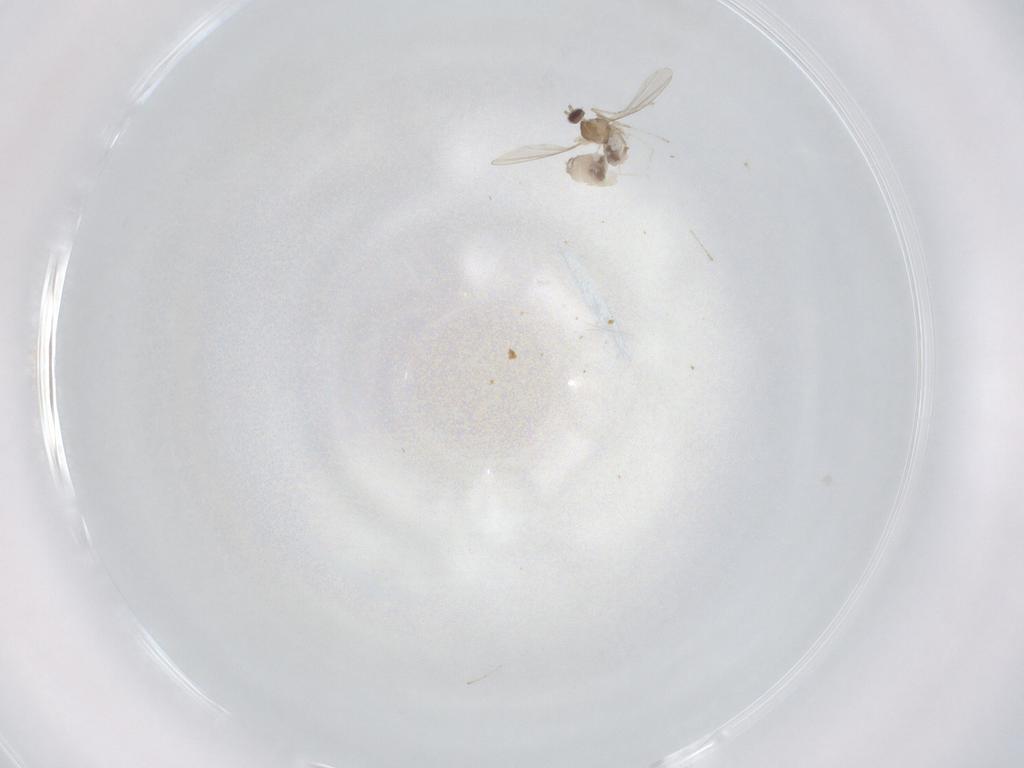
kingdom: Animalia
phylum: Arthropoda
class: Insecta
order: Diptera
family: Cecidomyiidae
